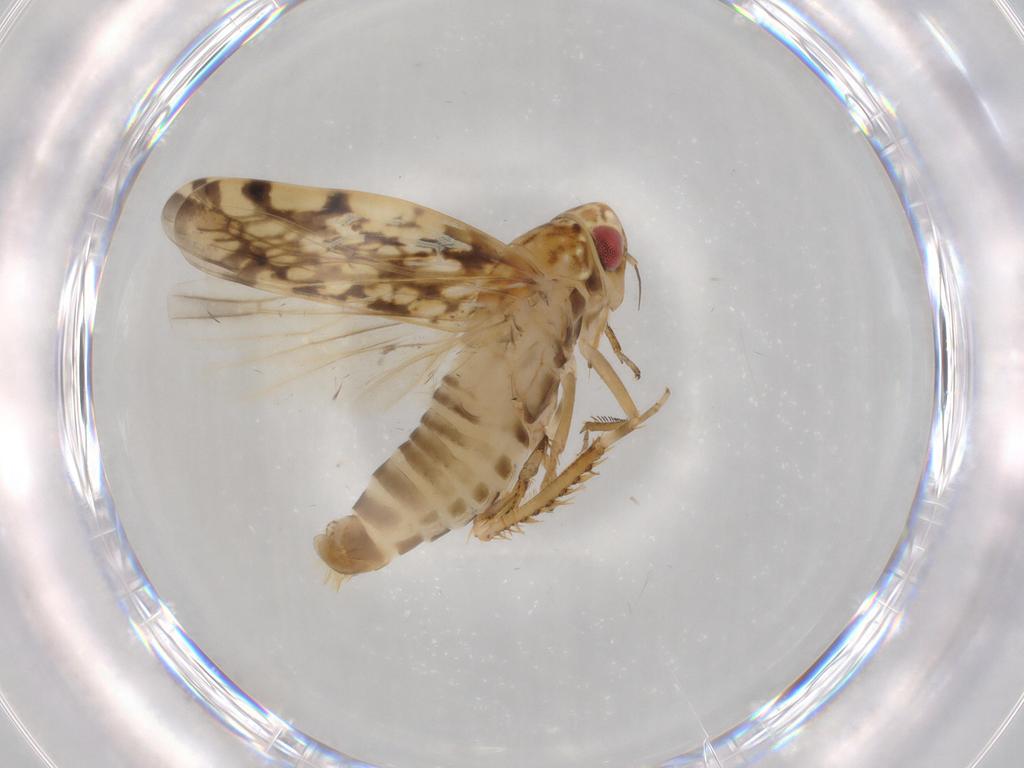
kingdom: Animalia
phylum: Arthropoda
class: Insecta
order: Hemiptera
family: Cicadellidae
